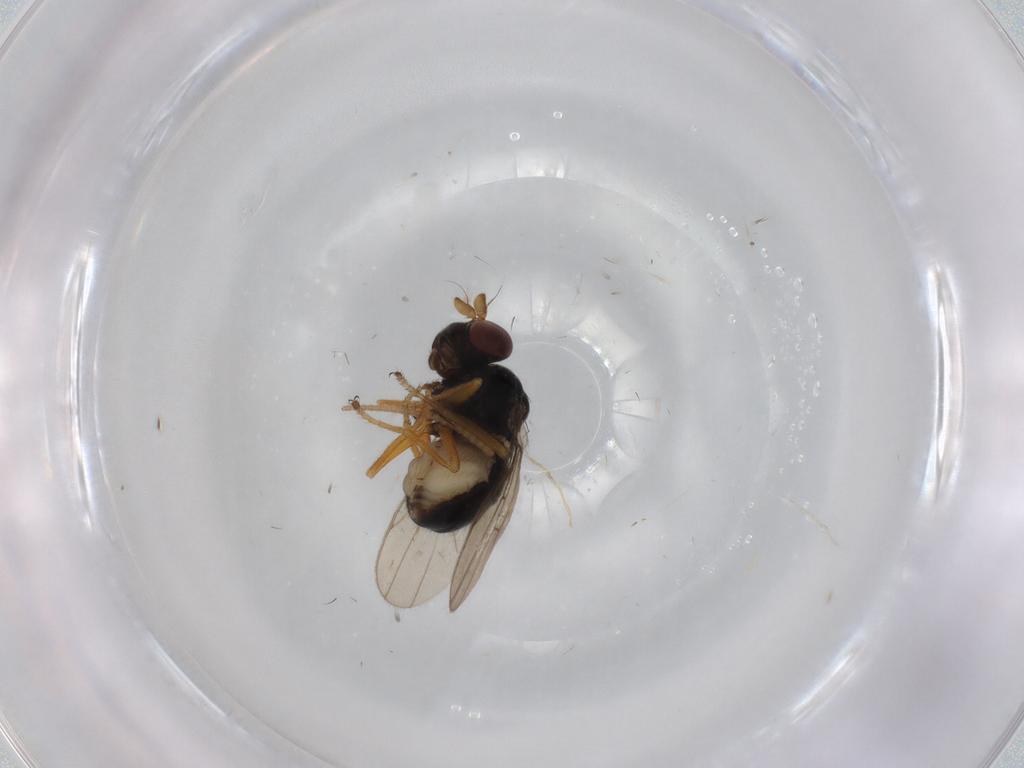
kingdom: Animalia
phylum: Arthropoda
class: Insecta
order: Diptera
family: Ephydridae
